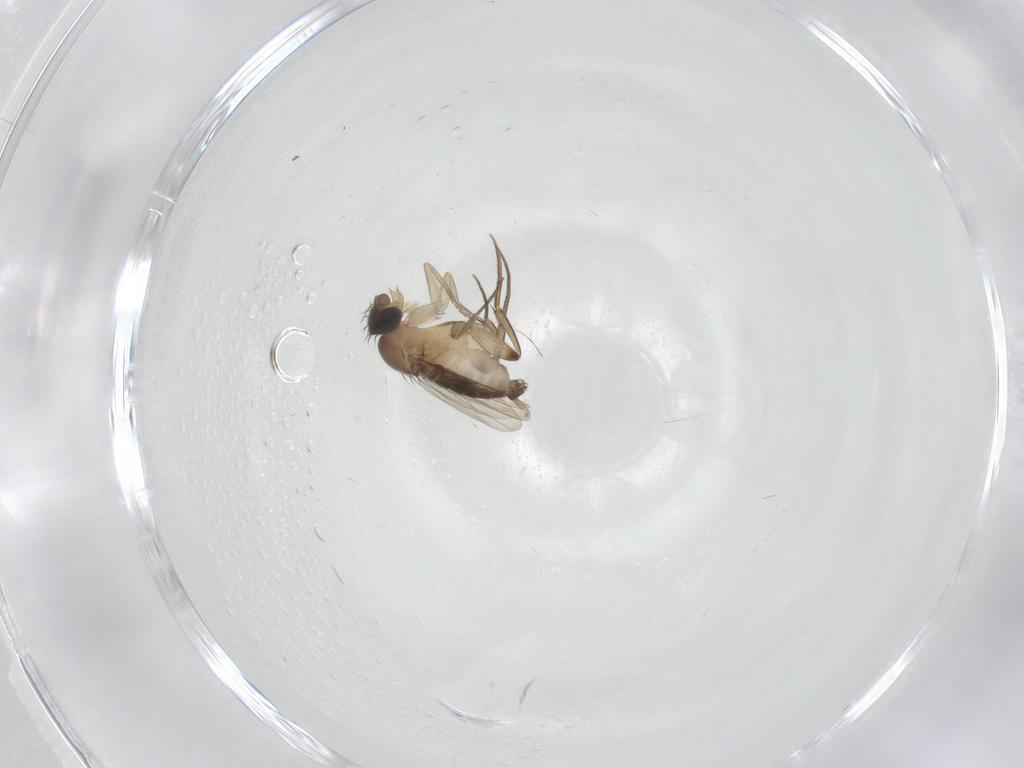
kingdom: Animalia
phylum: Arthropoda
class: Insecta
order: Diptera
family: Phoridae
